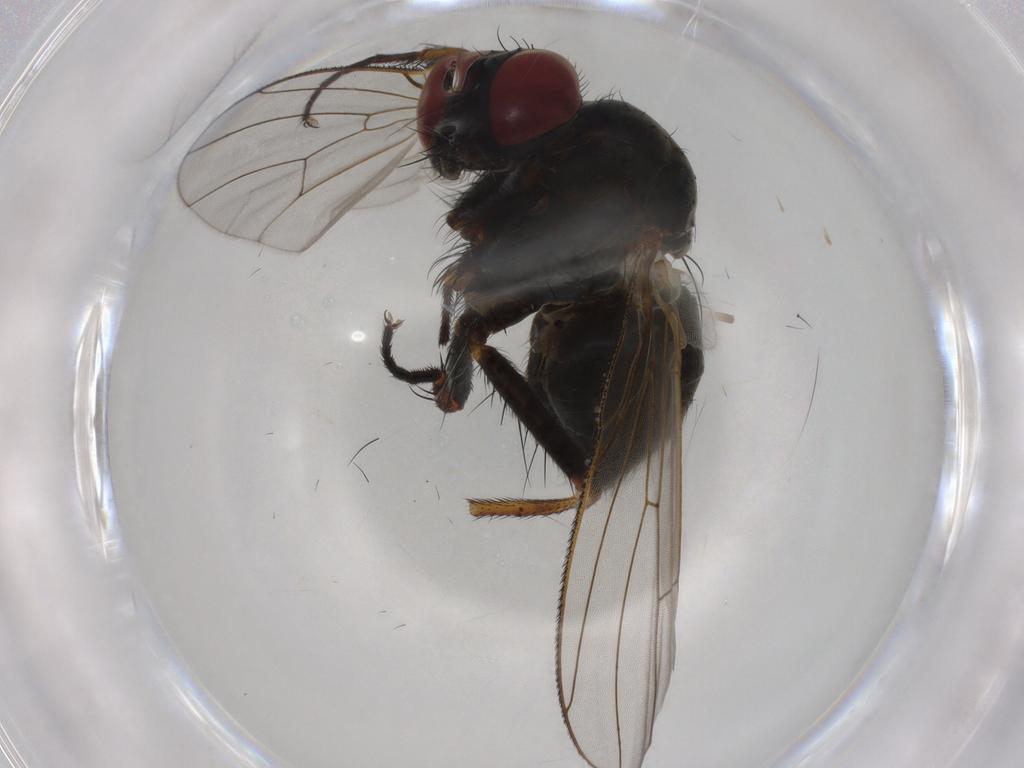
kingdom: Animalia
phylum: Arthropoda
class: Insecta
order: Diptera
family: Muscidae
